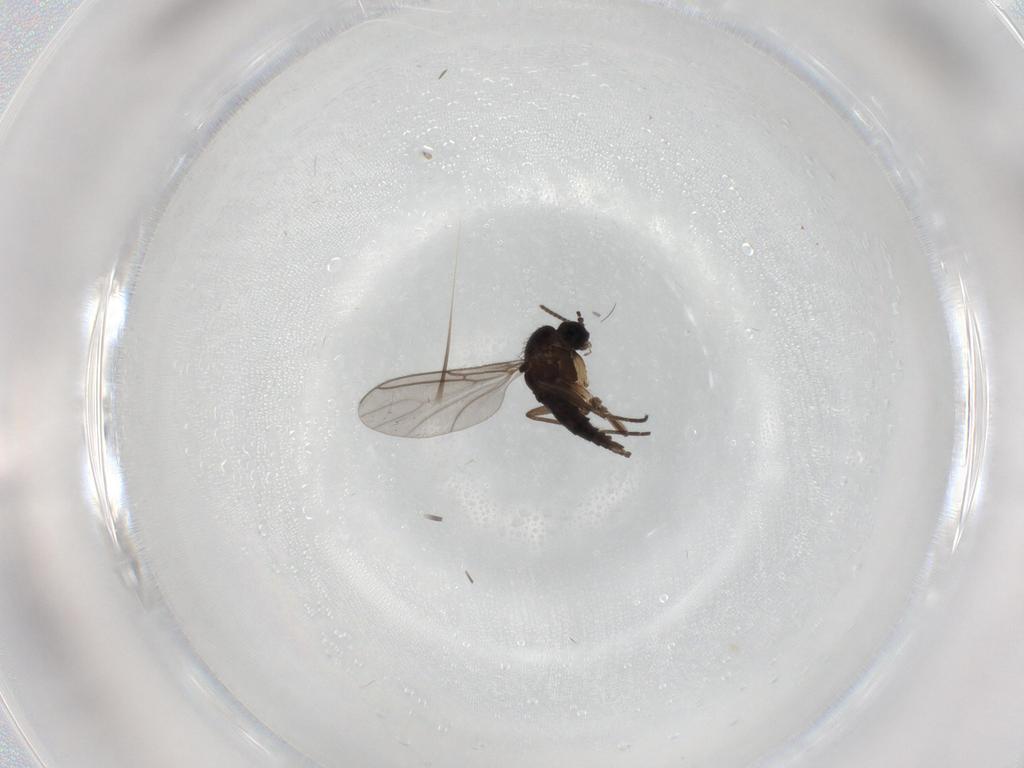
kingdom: Animalia
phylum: Arthropoda
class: Insecta
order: Diptera
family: Sciaridae
